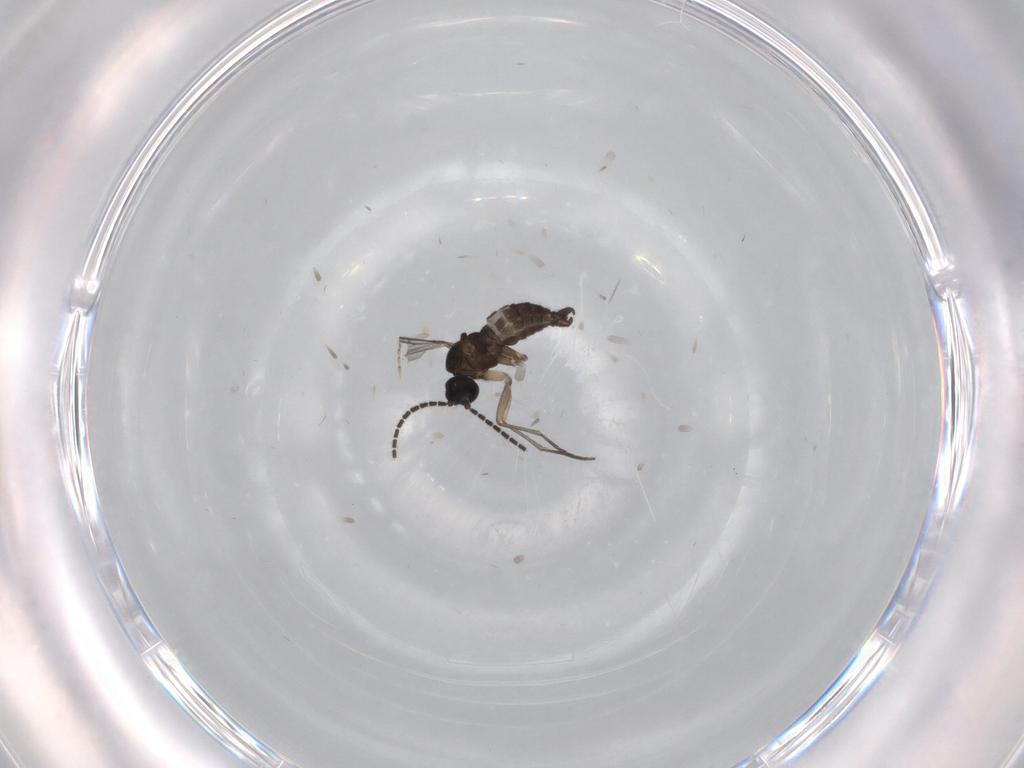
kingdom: Animalia
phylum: Arthropoda
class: Insecta
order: Diptera
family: Sciaridae
